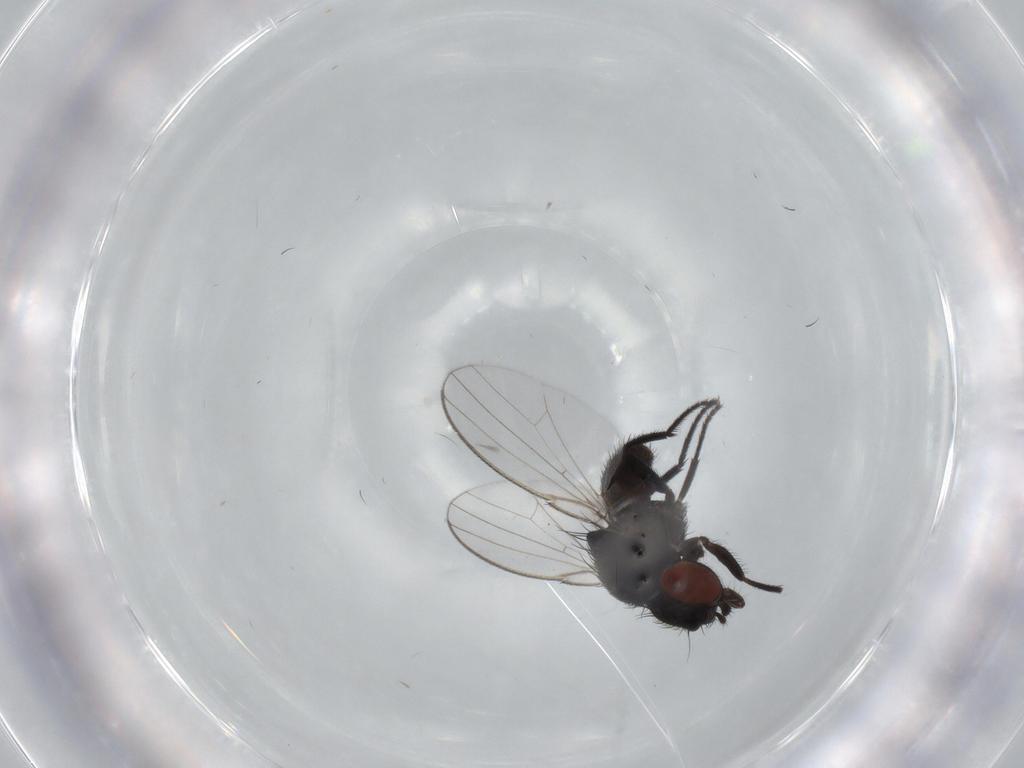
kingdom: Animalia
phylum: Arthropoda
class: Insecta
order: Diptera
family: Milichiidae
